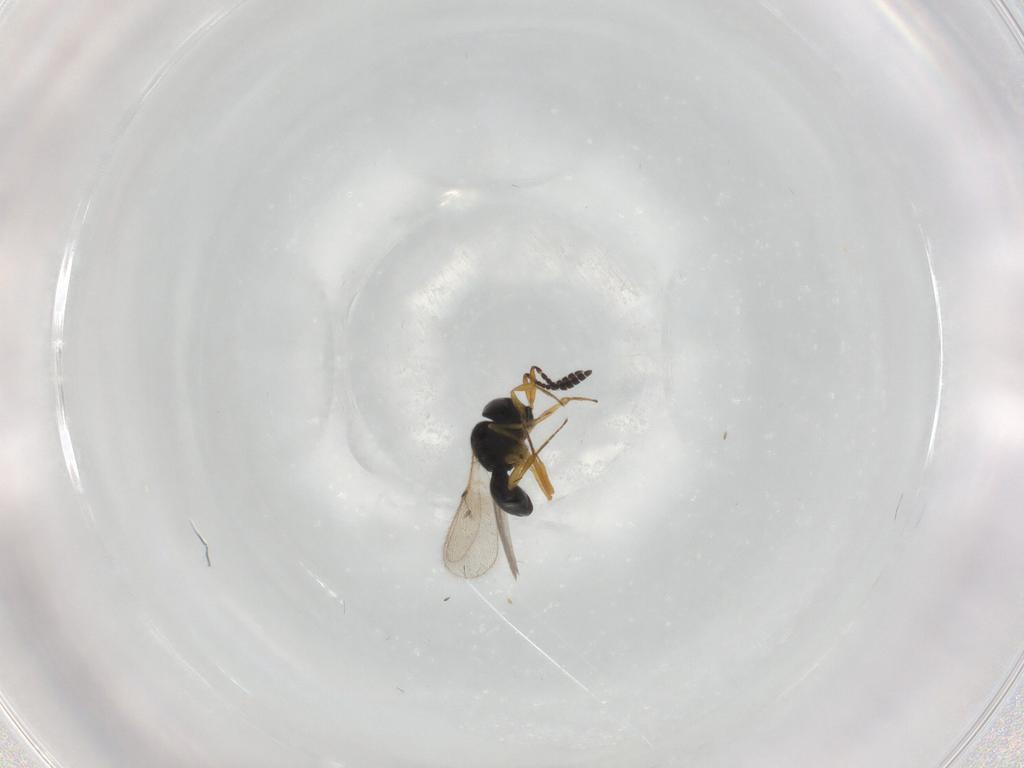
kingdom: Animalia
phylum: Arthropoda
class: Insecta
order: Hymenoptera
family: Scelionidae
